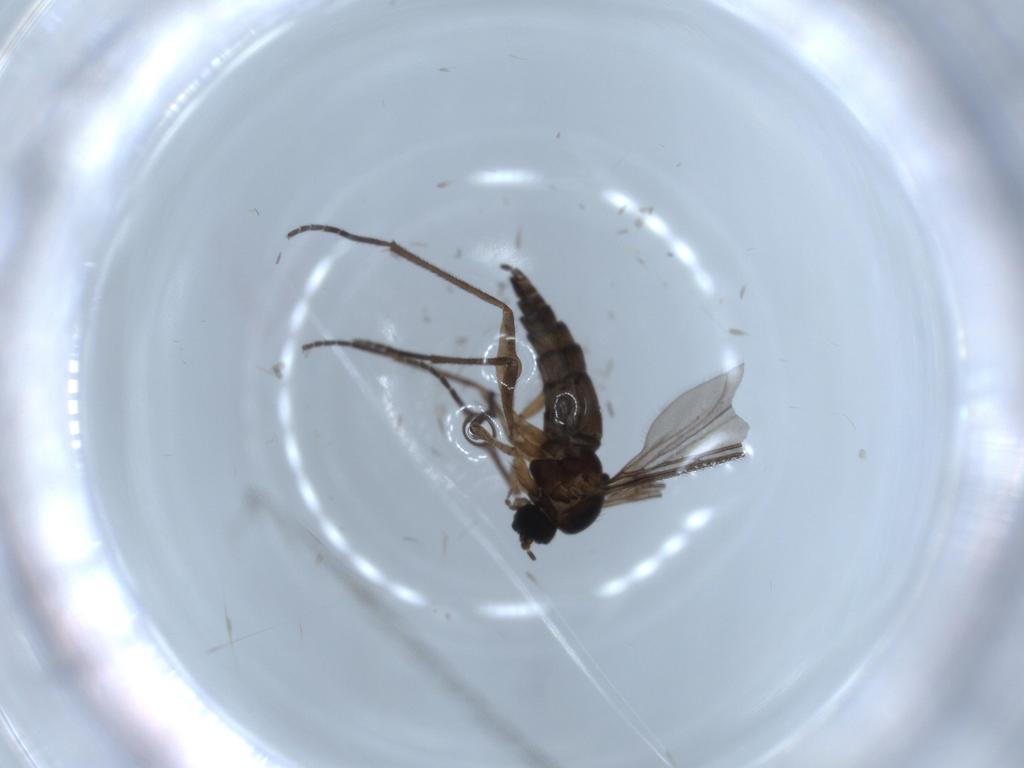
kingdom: Animalia
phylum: Arthropoda
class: Insecta
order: Diptera
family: Sciaridae
